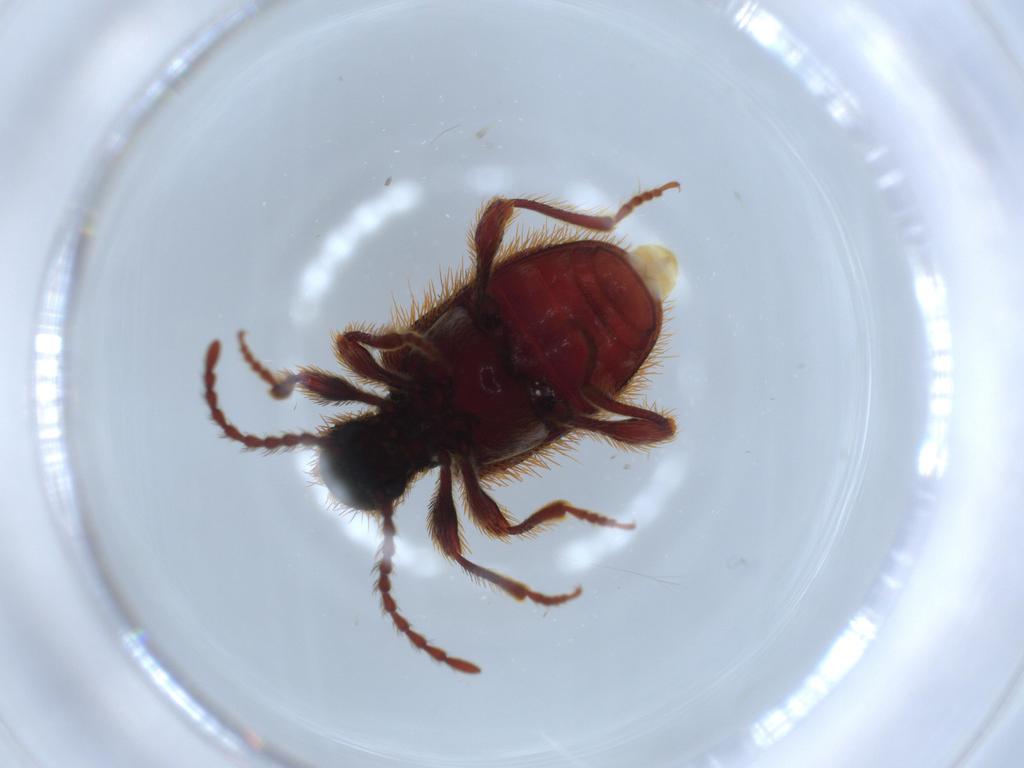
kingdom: Animalia
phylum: Arthropoda
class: Insecta
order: Coleoptera
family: Ptinidae
